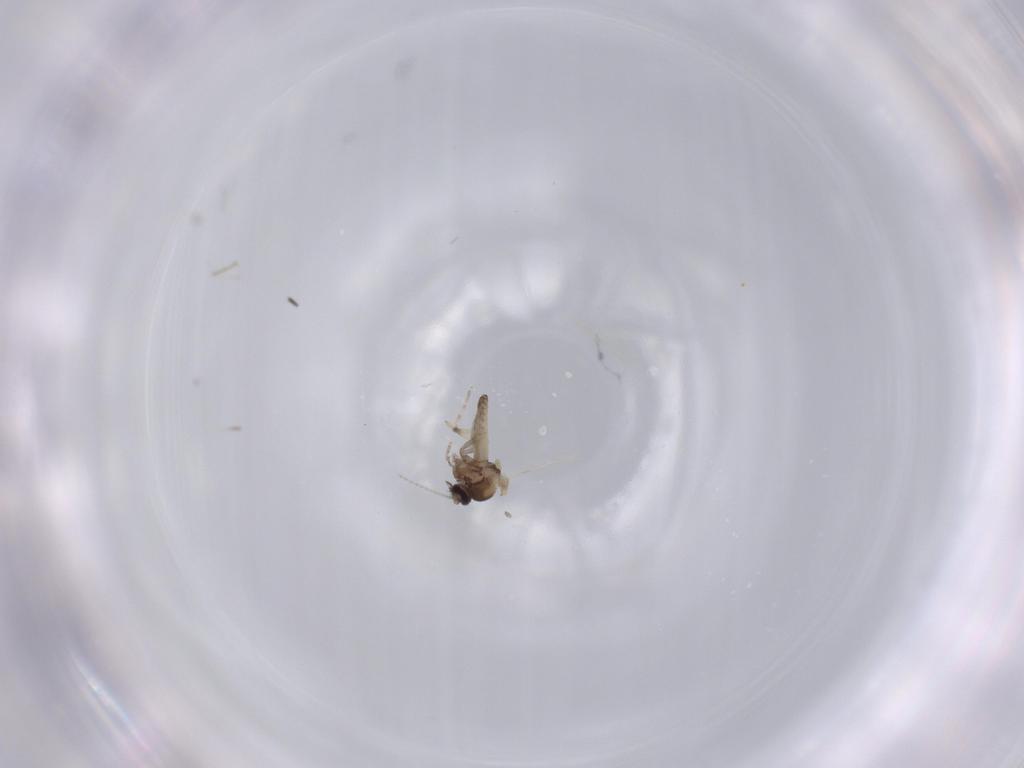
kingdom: Animalia
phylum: Arthropoda
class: Insecta
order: Diptera
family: Ceratopogonidae
